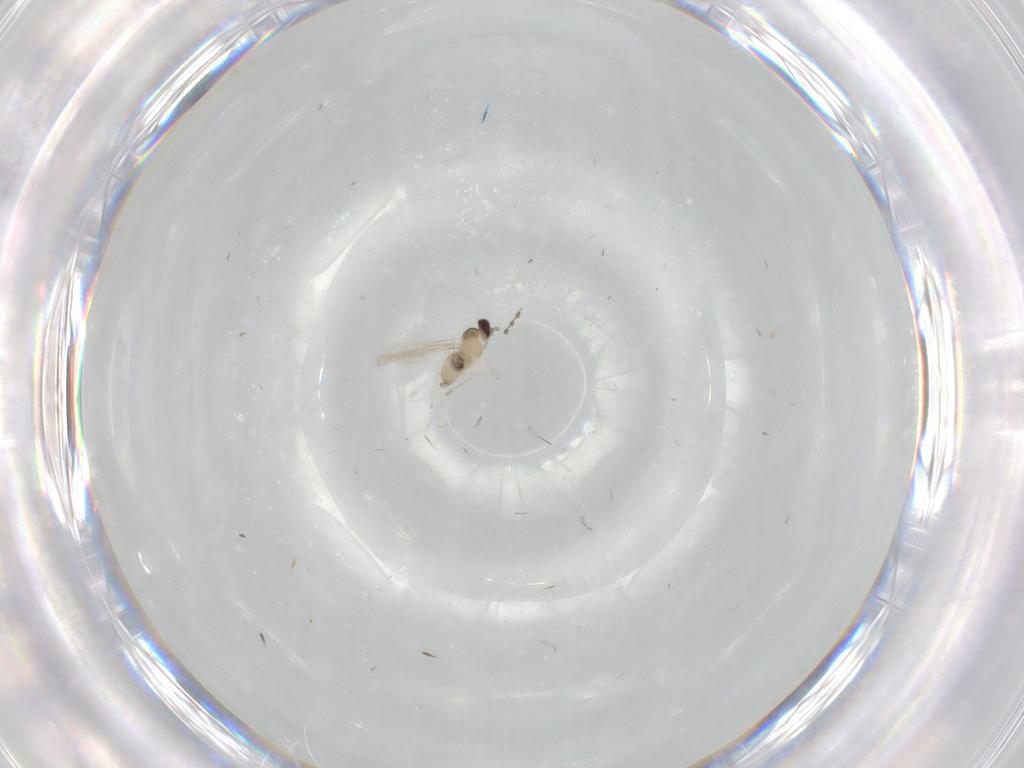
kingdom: Animalia
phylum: Arthropoda
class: Insecta
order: Diptera
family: Cecidomyiidae
